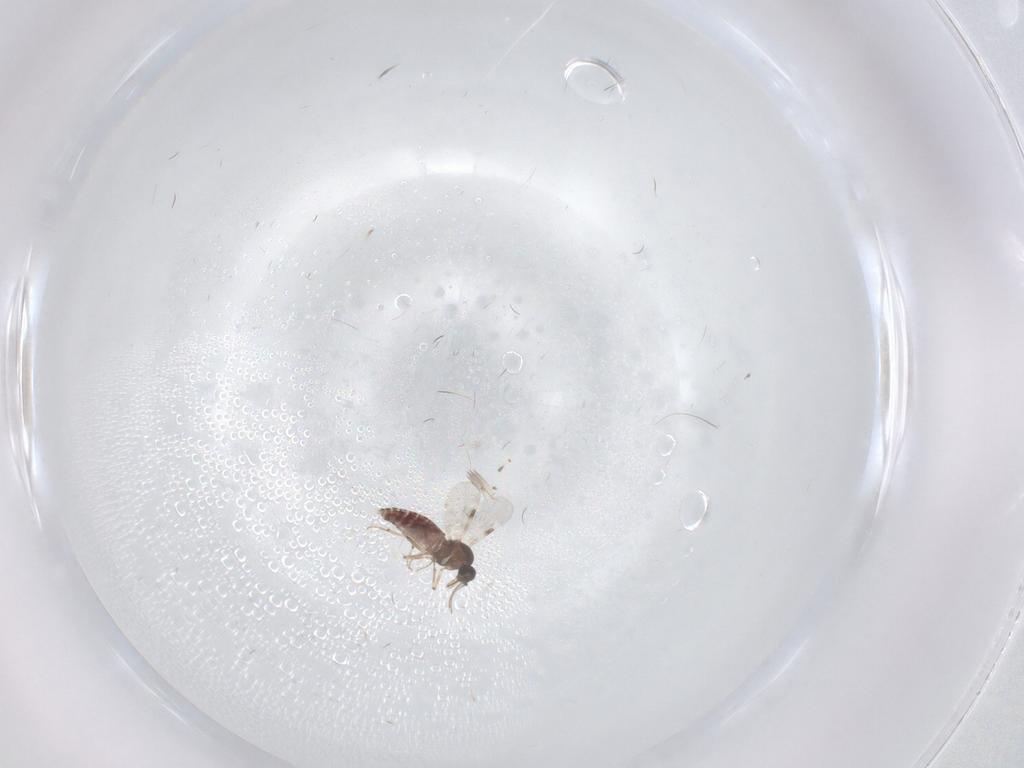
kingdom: Animalia
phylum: Arthropoda
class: Insecta
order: Diptera
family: Cecidomyiidae
